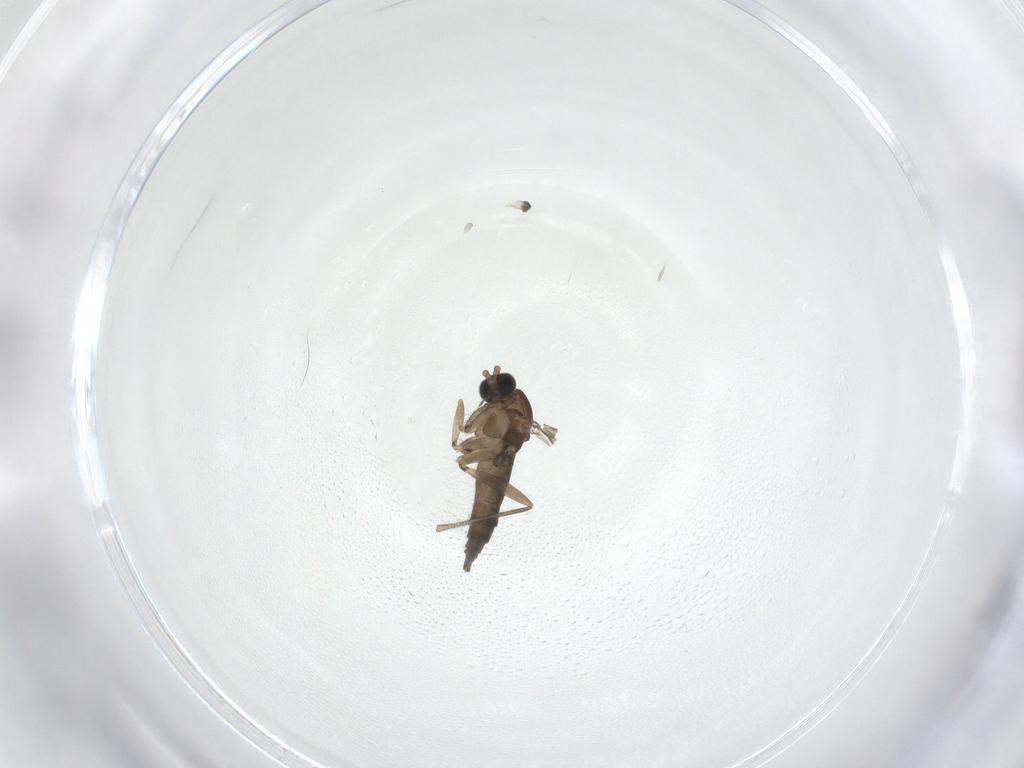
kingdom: Animalia
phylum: Arthropoda
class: Insecta
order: Diptera
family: Sciaridae
